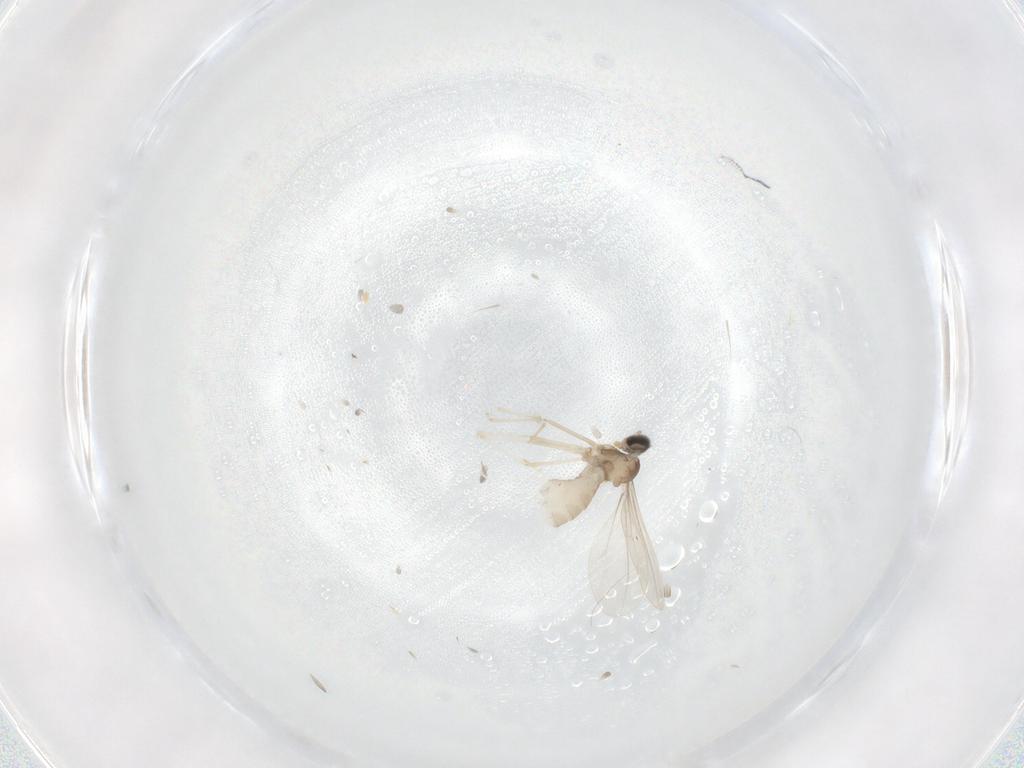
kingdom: Animalia
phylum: Arthropoda
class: Insecta
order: Diptera
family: Cecidomyiidae
